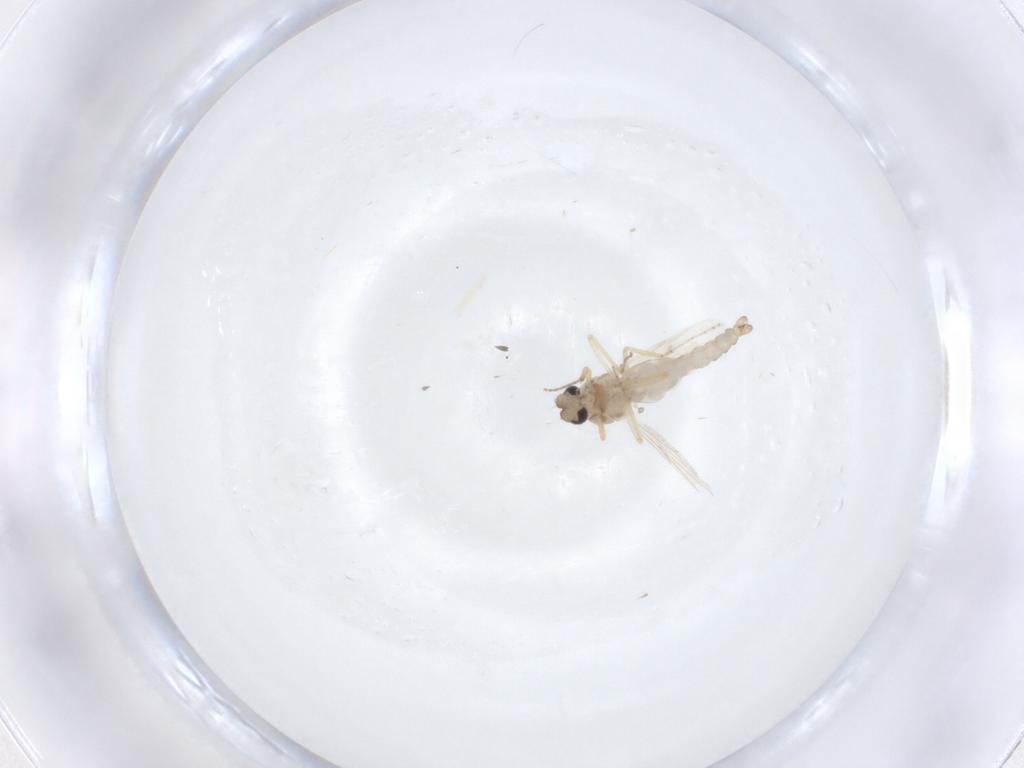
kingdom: Animalia
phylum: Arthropoda
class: Insecta
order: Diptera
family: Ceratopogonidae
